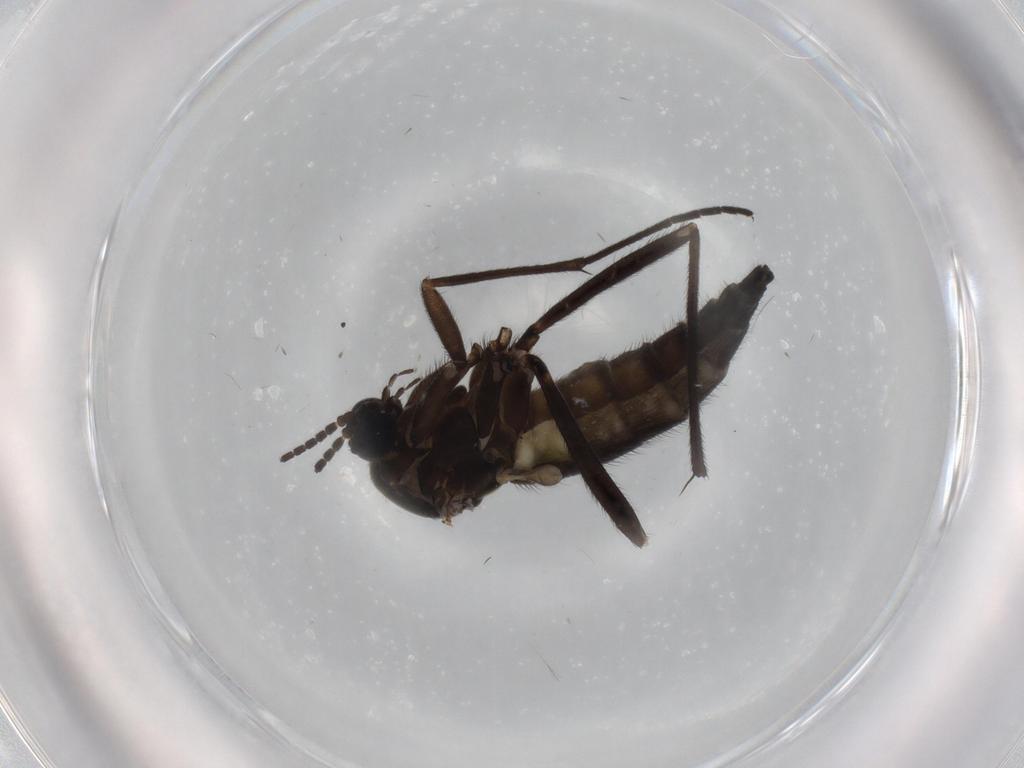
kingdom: Animalia
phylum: Arthropoda
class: Insecta
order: Diptera
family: Sciaridae
